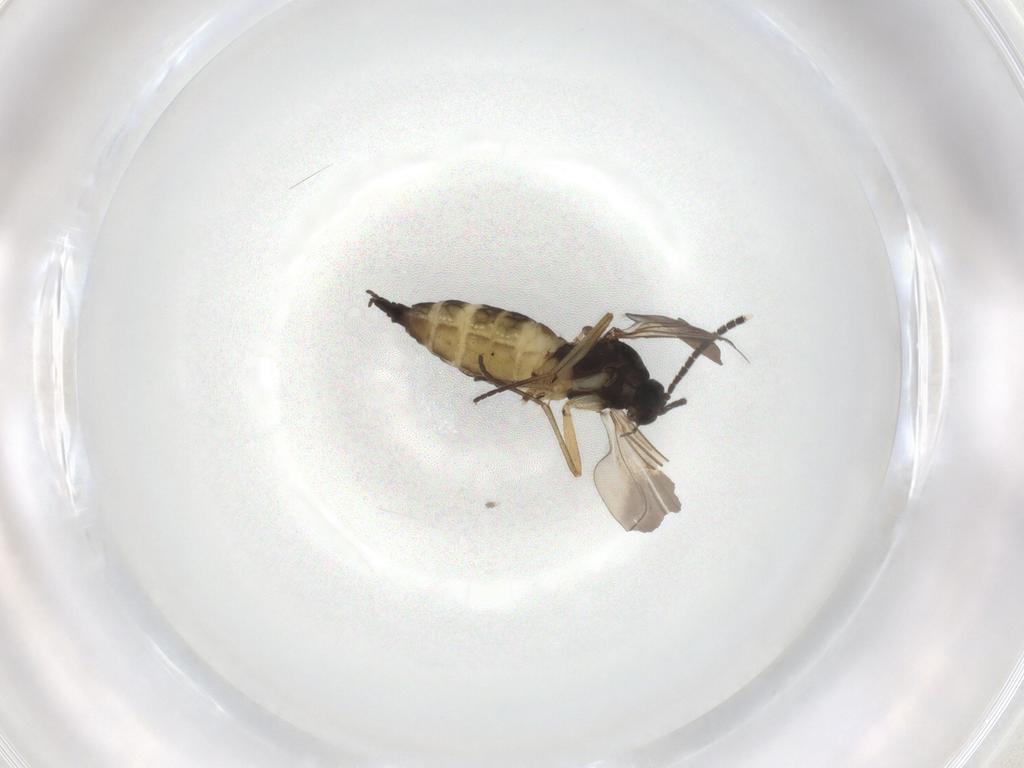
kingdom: Animalia
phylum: Arthropoda
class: Insecta
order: Diptera
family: Sciaridae
